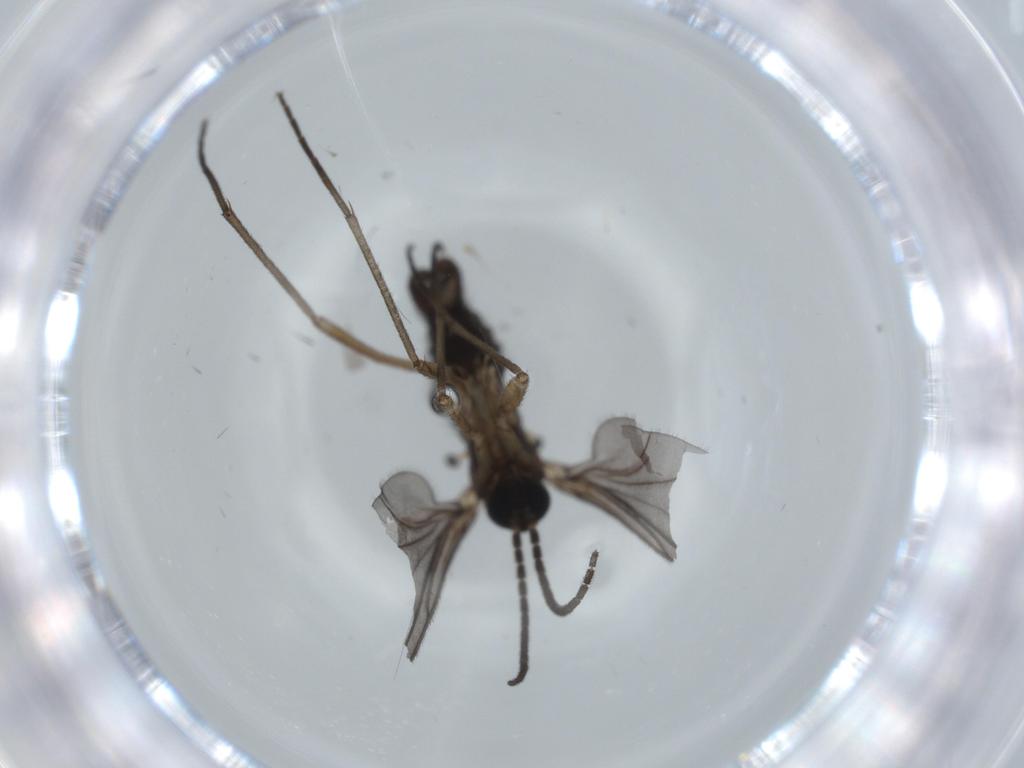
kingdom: Animalia
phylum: Arthropoda
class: Insecta
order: Diptera
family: Sciaridae
